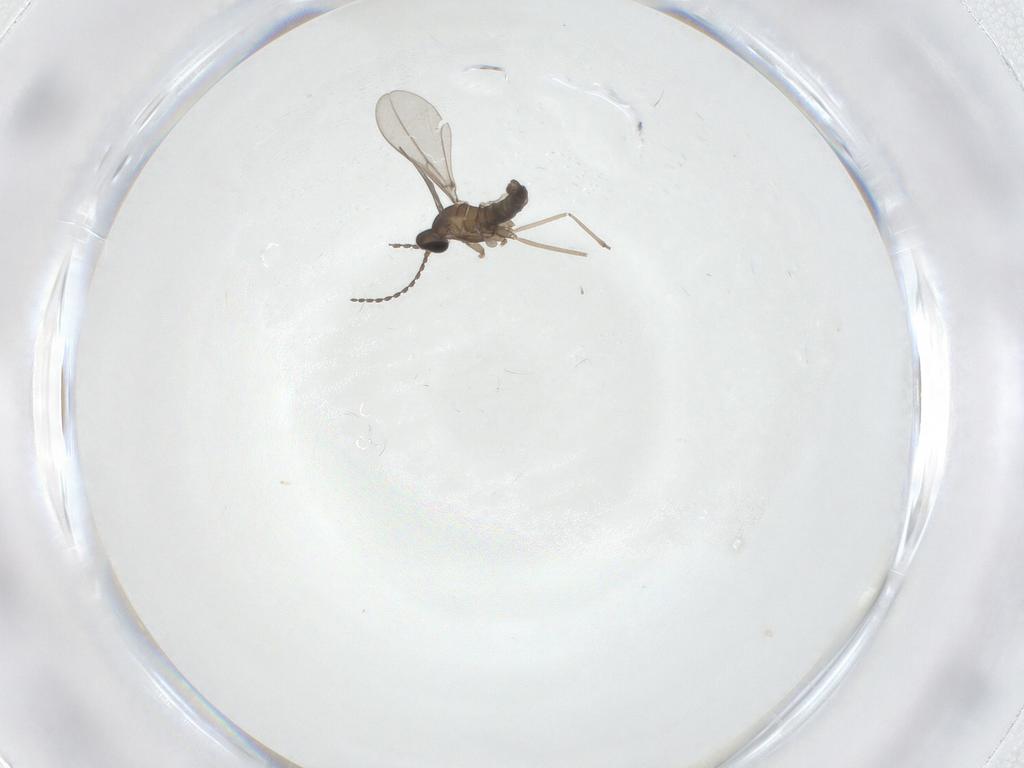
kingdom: Animalia
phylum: Arthropoda
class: Insecta
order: Diptera
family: Cecidomyiidae
